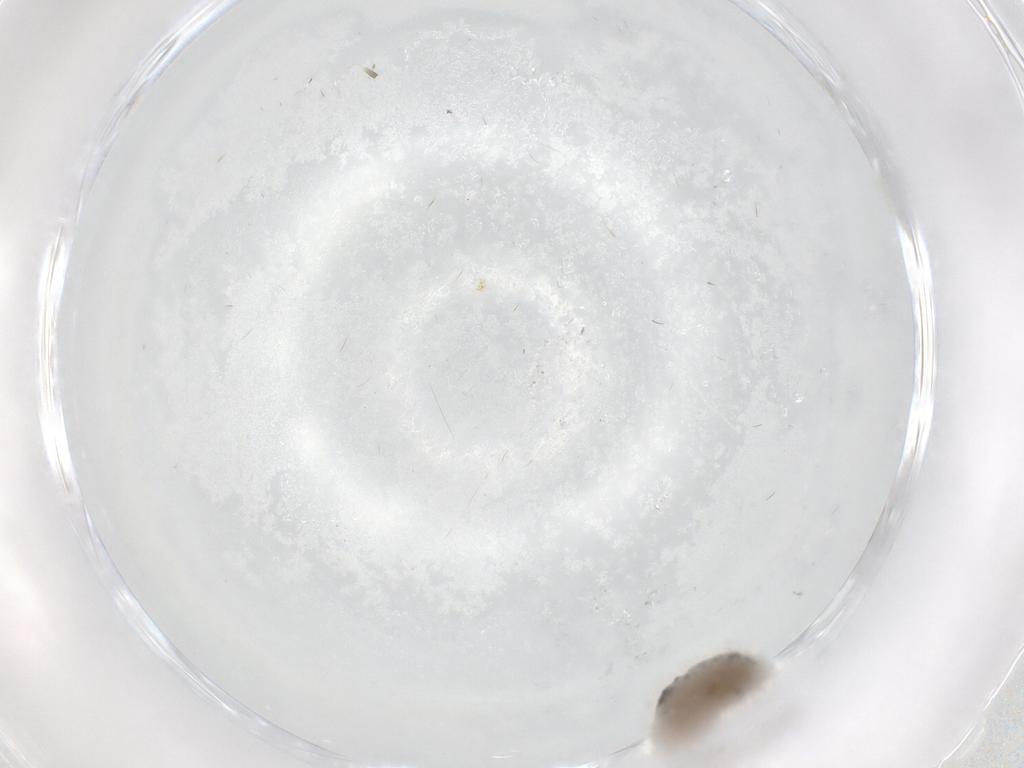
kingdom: Animalia
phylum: Arthropoda
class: Insecta
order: Diptera
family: Phoridae
